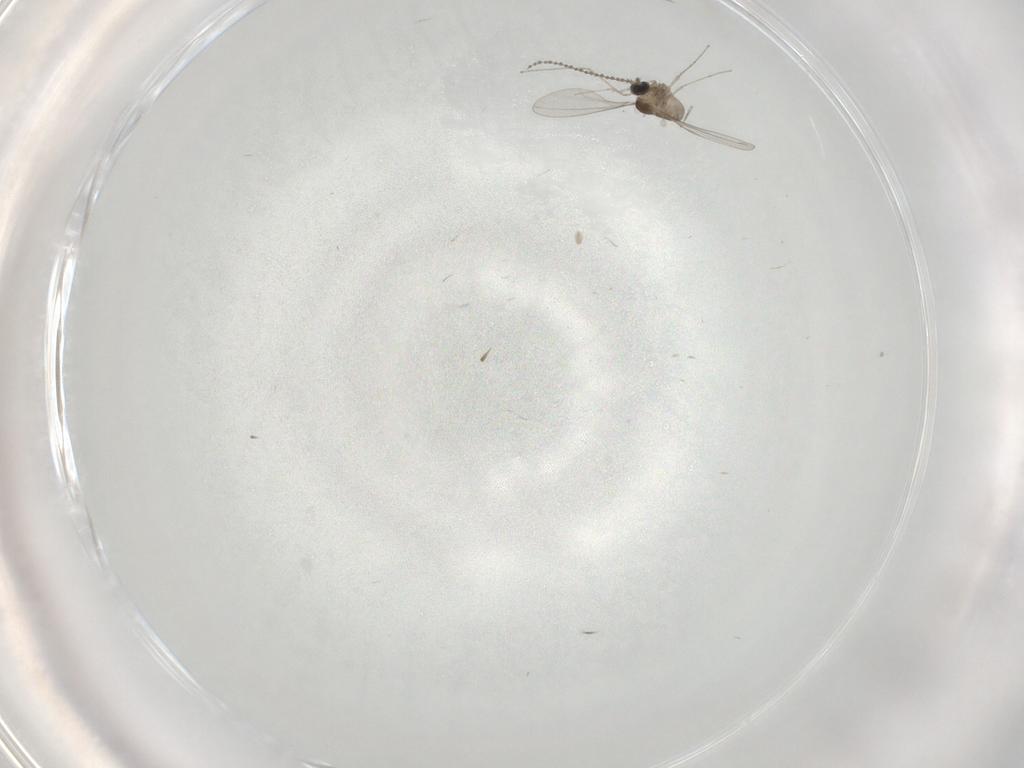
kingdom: Animalia
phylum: Arthropoda
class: Insecta
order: Diptera
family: Cecidomyiidae
